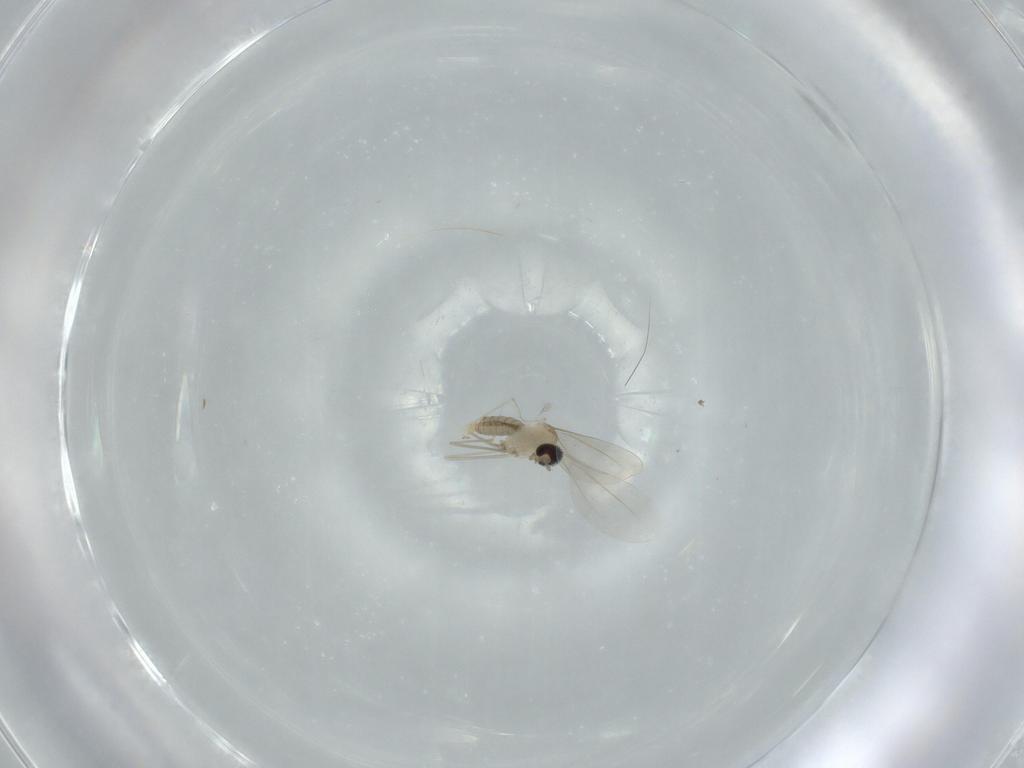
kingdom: Animalia
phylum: Arthropoda
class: Insecta
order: Diptera
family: Cecidomyiidae
